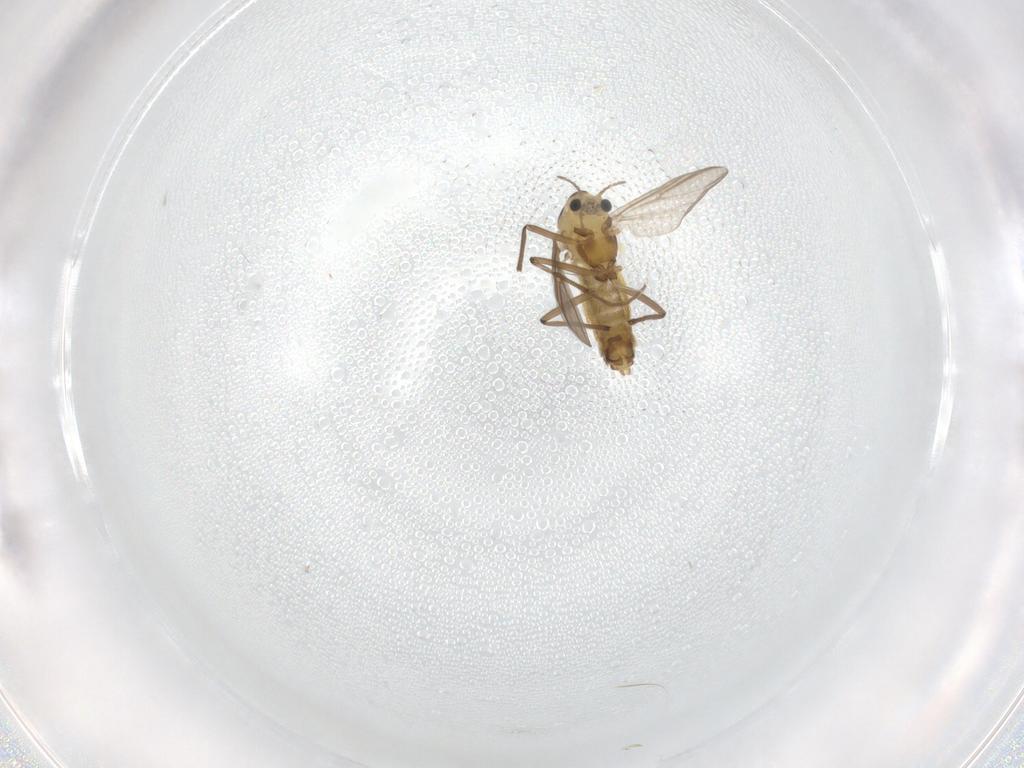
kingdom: Animalia
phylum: Arthropoda
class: Insecta
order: Diptera
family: Chironomidae
